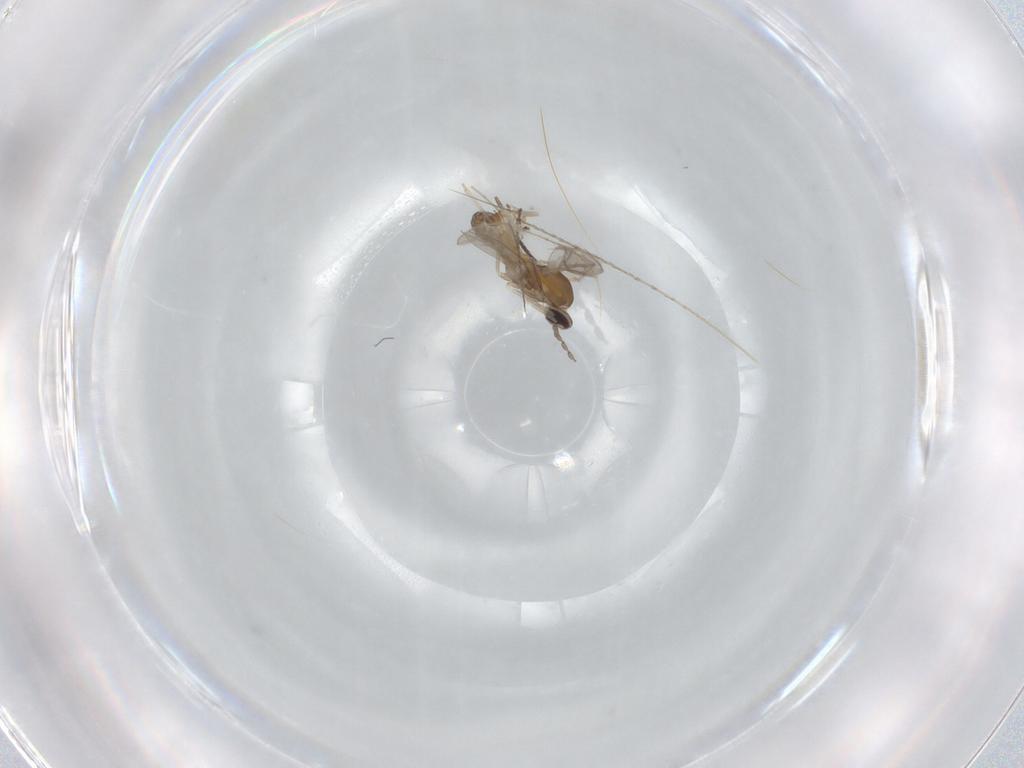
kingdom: Animalia
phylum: Arthropoda
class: Insecta
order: Diptera
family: Cecidomyiidae
